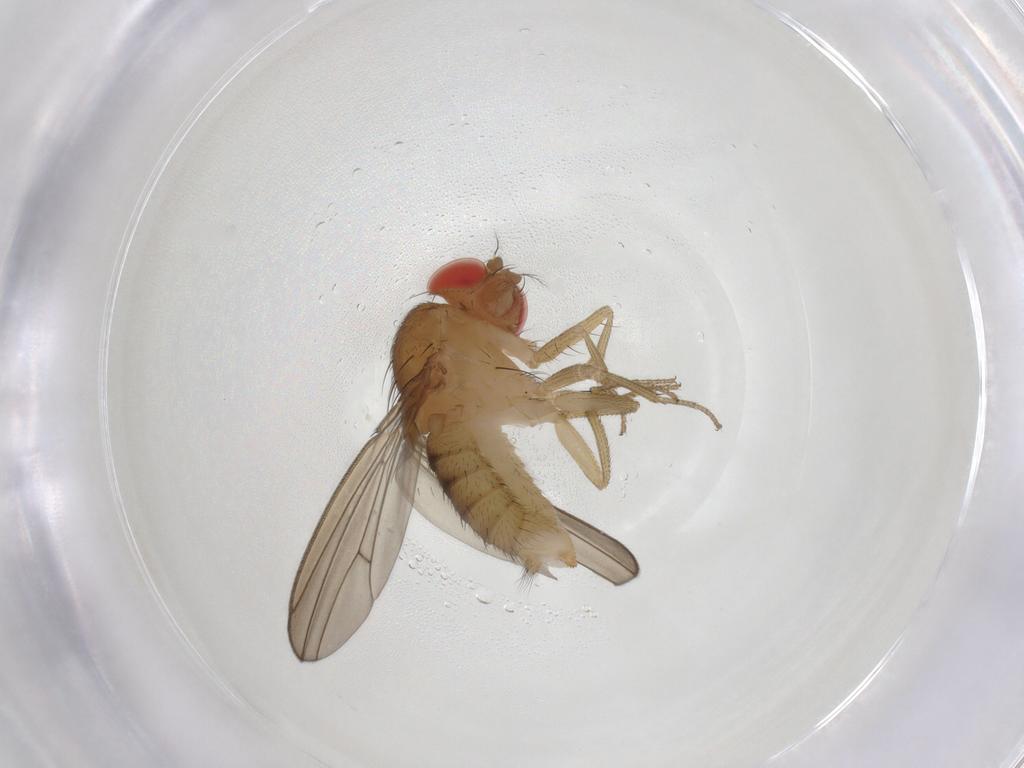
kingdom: Animalia
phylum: Arthropoda
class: Insecta
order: Diptera
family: Drosophilidae
